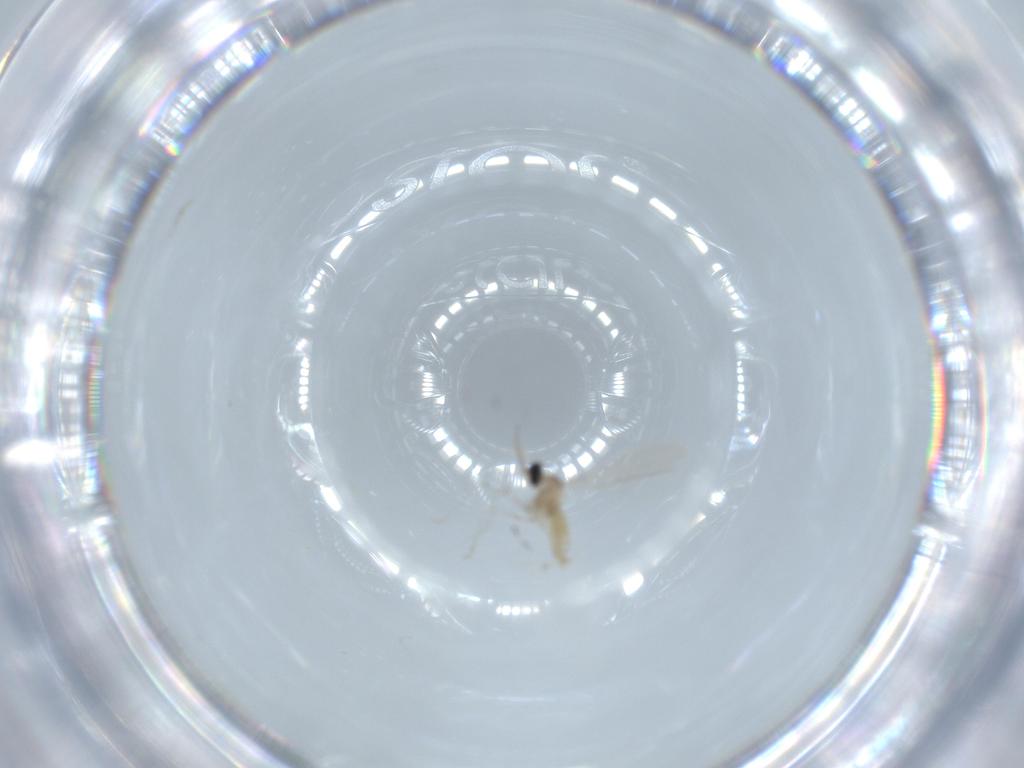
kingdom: Animalia
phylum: Arthropoda
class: Insecta
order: Diptera
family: Cecidomyiidae
